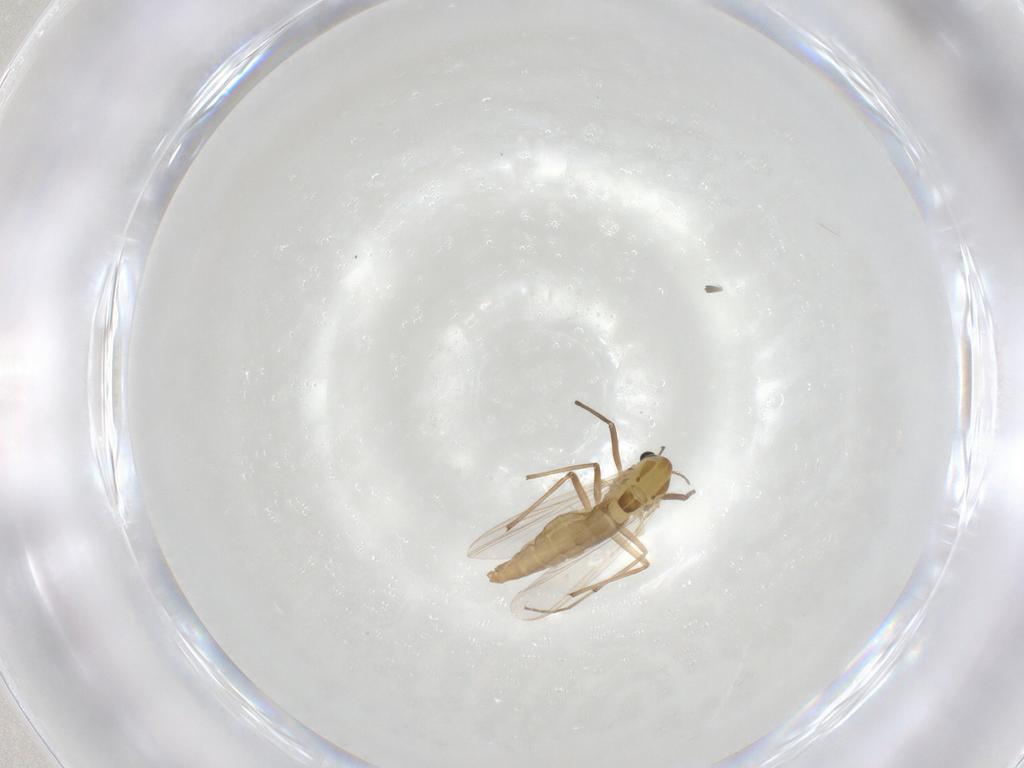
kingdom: Animalia
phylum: Arthropoda
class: Insecta
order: Diptera
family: Chironomidae
